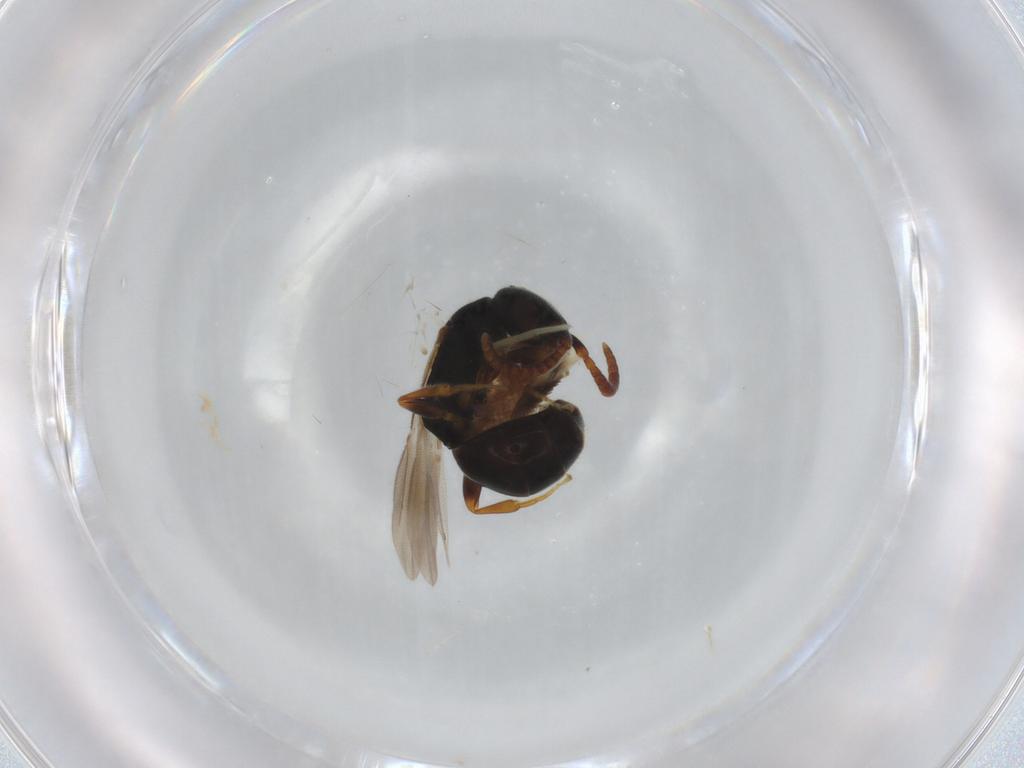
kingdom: Animalia
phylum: Arthropoda
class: Insecta
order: Hymenoptera
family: Bethylidae
